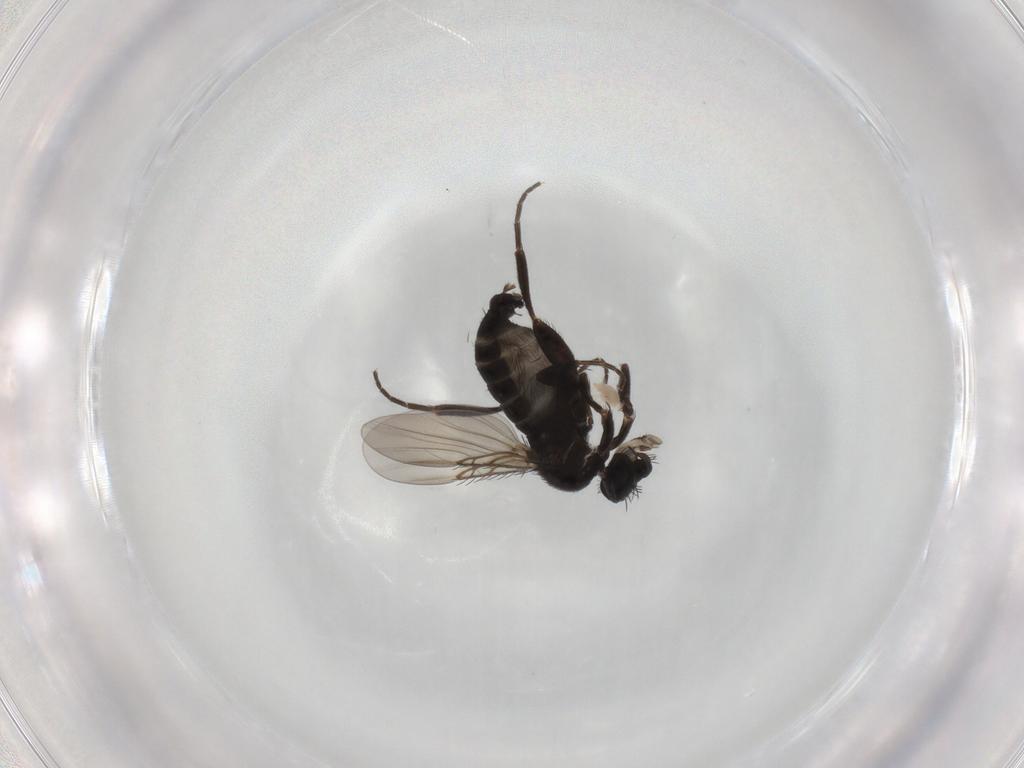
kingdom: Animalia
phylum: Arthropoda
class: Insecta
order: Diptera
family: Phoridae
